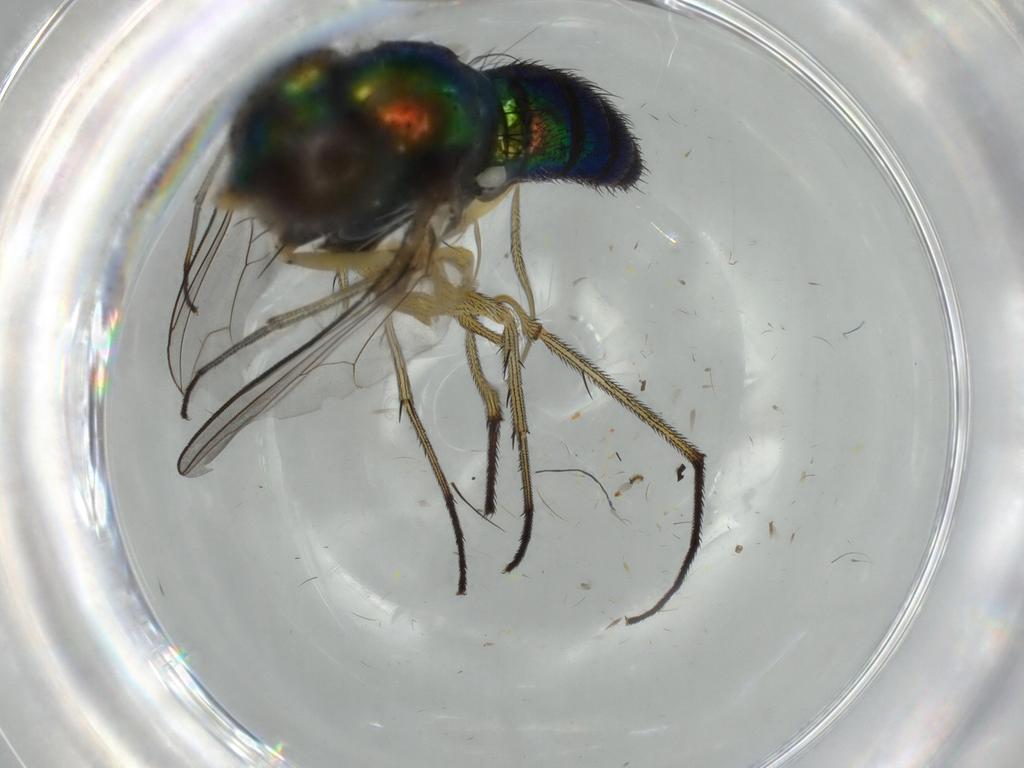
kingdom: Animalia
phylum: Arthropoda
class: Insecta
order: Diptera
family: Dolichopodidae
